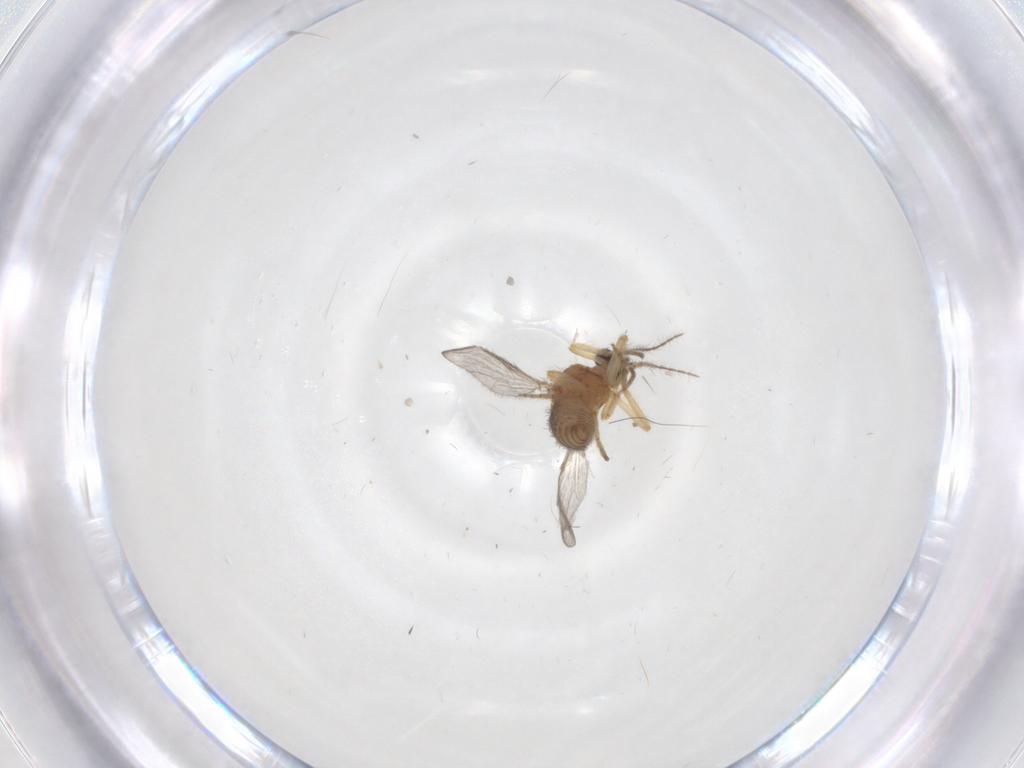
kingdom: Animalia
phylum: Arthropoda
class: Insecta
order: Diptera
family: Ceratopogonidae
